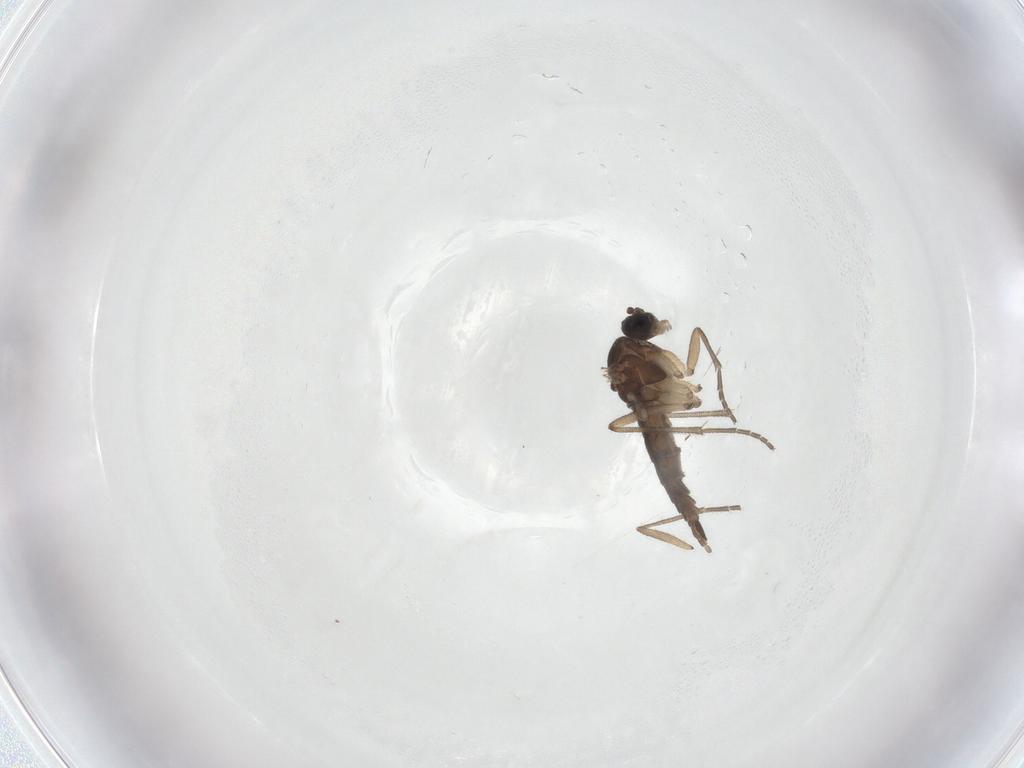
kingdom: Animalia
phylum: Arthropoda
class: Insecta
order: Diptera
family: Sciaridae
